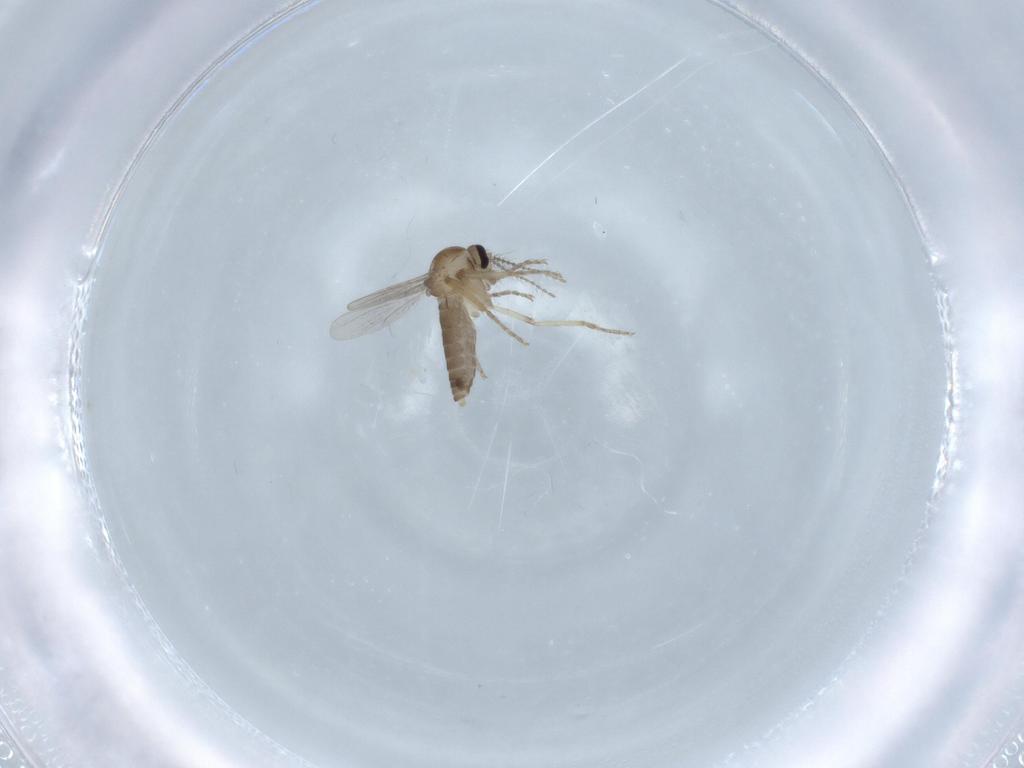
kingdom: Animalia
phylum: Arthropoda
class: Insecta
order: Diptera
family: Ceratopogonidae
